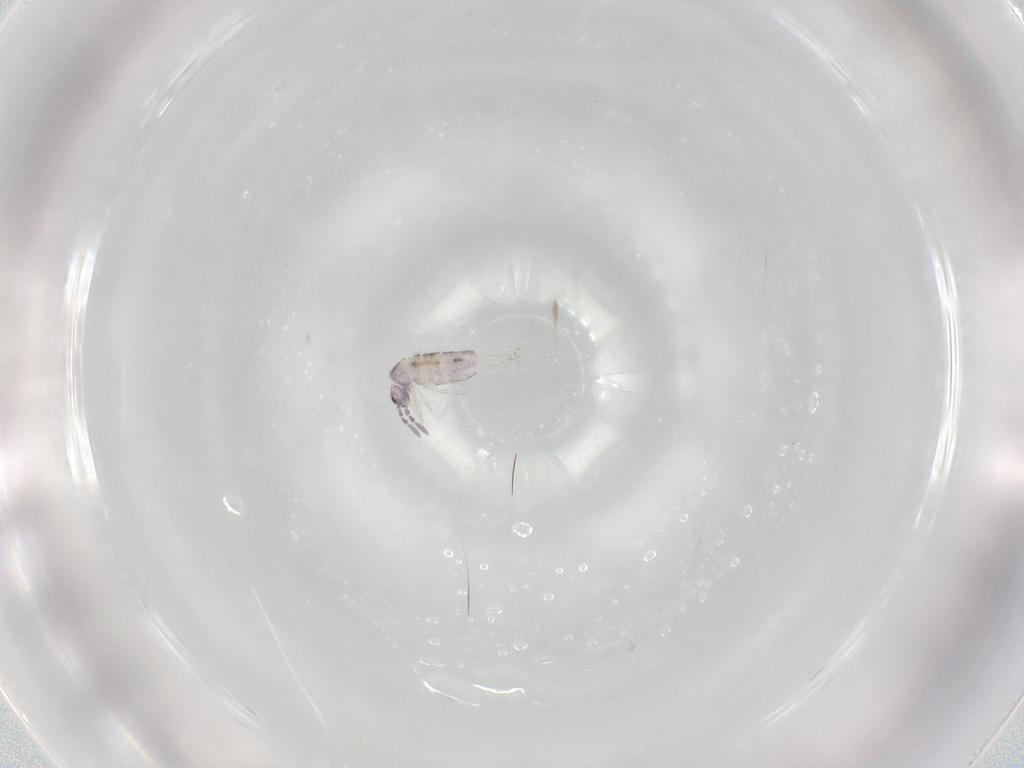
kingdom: Animalia
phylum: Arthropoda
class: Collembola
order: Entomobryomorpha
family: Entomobryidae
